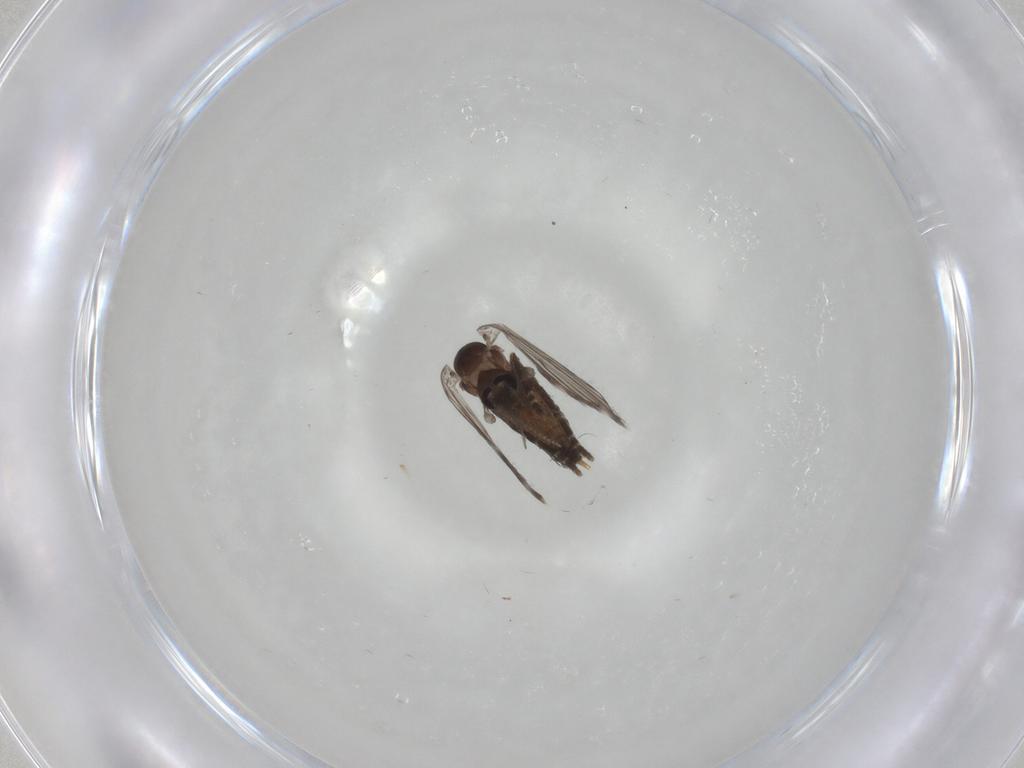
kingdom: Animalia
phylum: Arthropoda
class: Insecta
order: Diptera
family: Psychodidae
